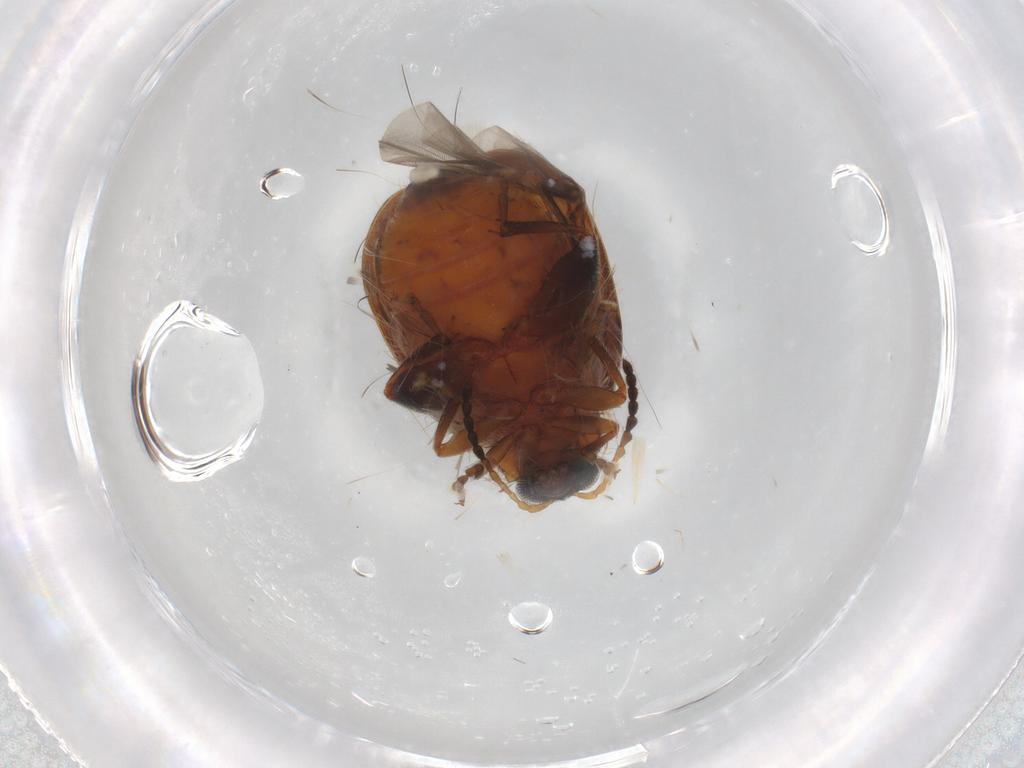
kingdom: Animalia
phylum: Arthropoda
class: Insecta
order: Coleoptera
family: Chrysomelidae
